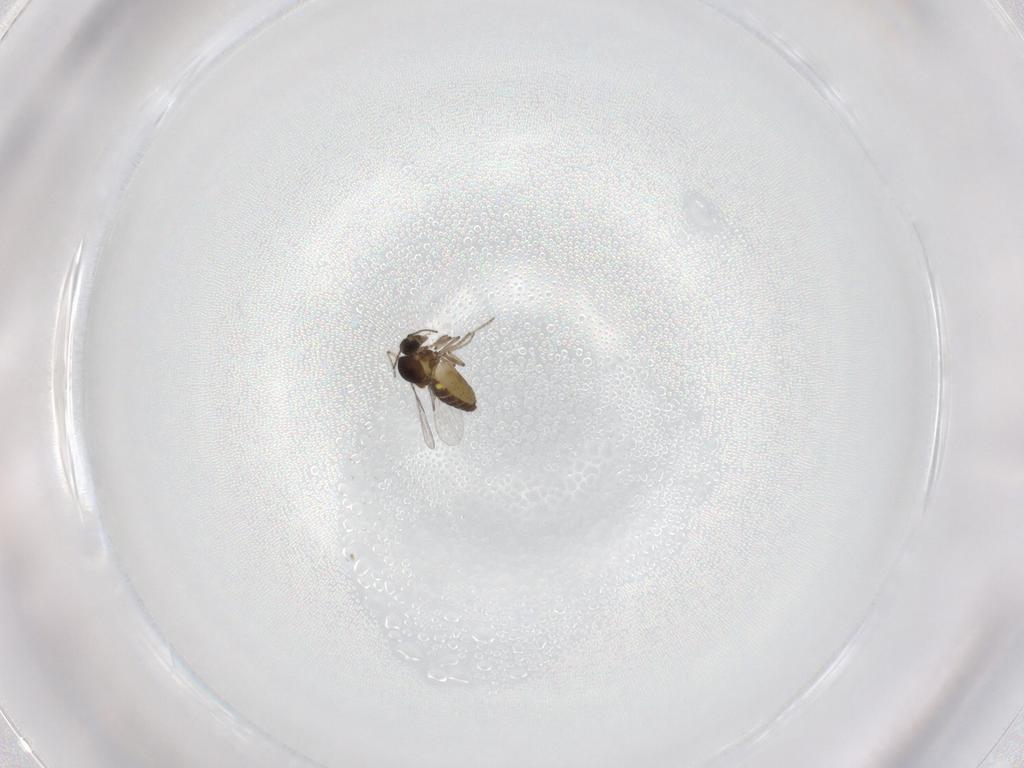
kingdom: Animalia
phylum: Arthropoda
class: Insecta
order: Diptera
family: Ceratopogonidae
